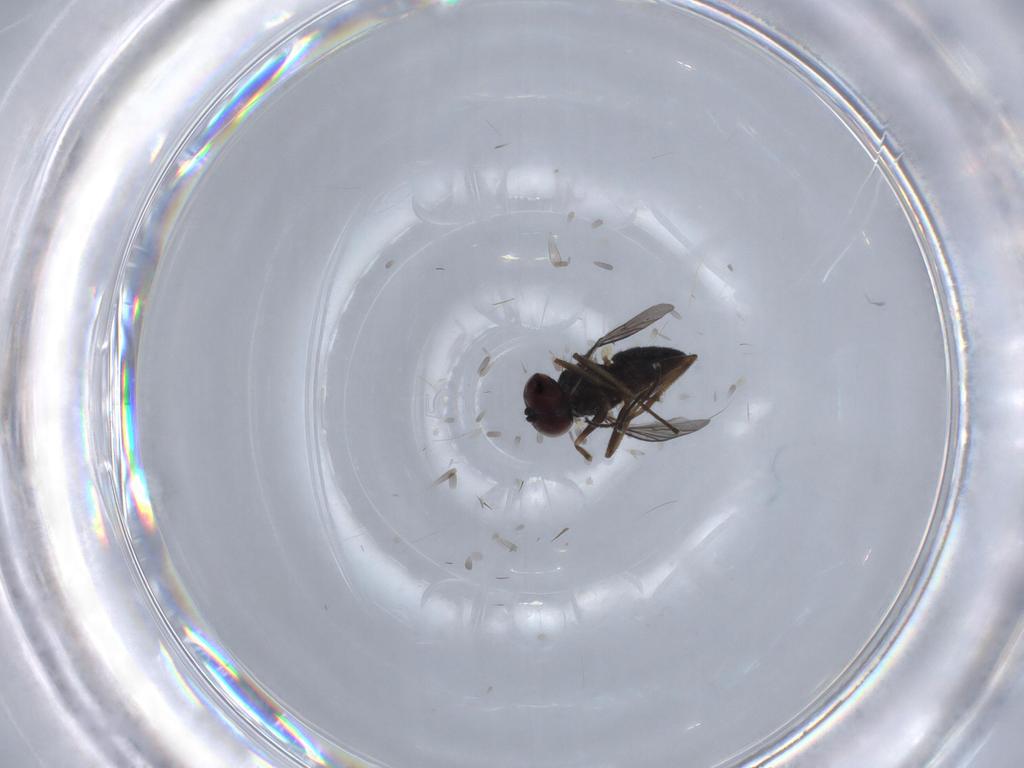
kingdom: Animalia
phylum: Arthropoda
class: Insecta
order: Diptera
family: Dolichopodidae
